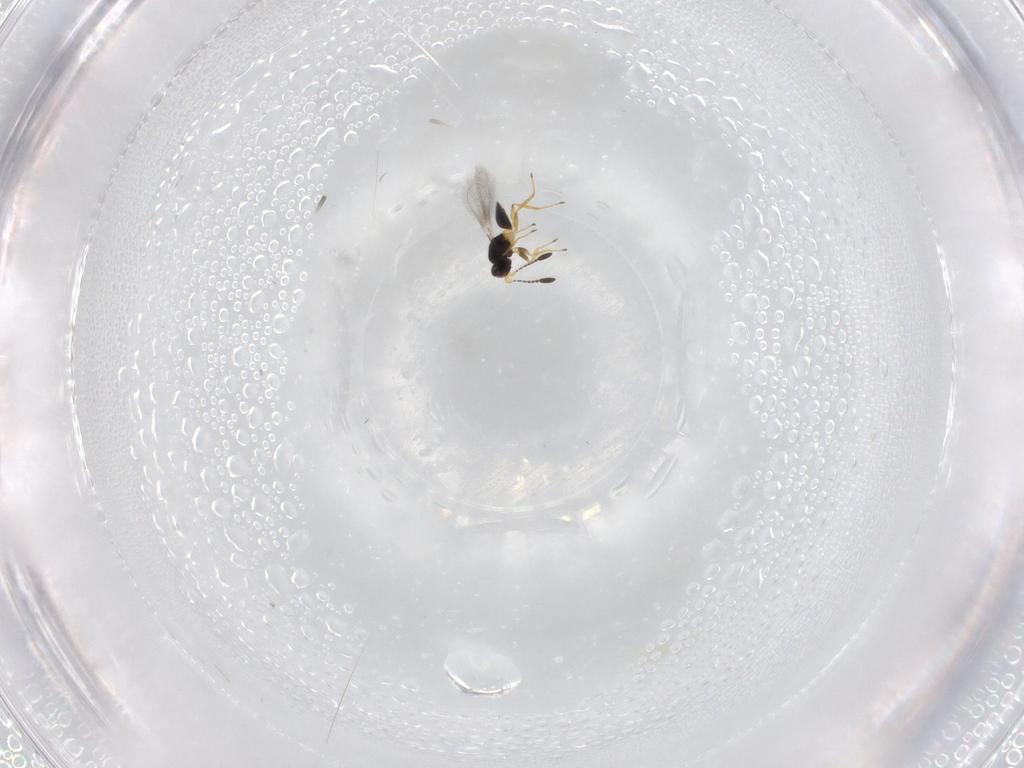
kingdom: Animalia
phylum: Arthropoda
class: Insecta
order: Hymenoptera
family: Mymaridae
